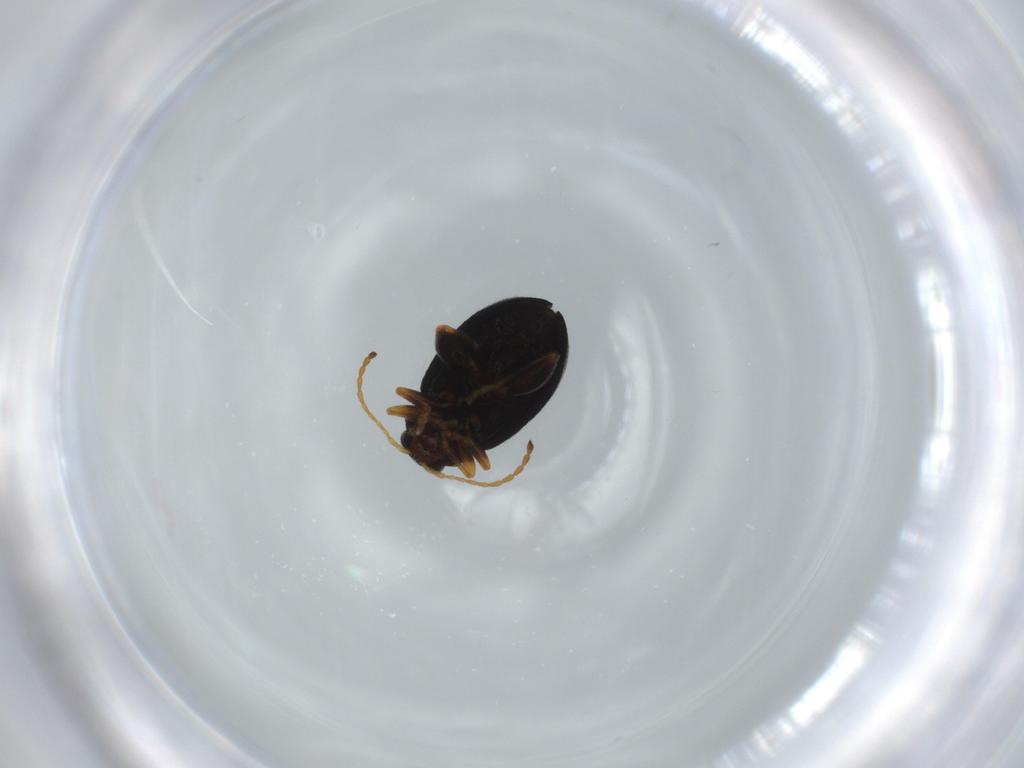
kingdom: Animalia
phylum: Arthropoda
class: Insecta
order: Coleoptera
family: Chrysomelidae
